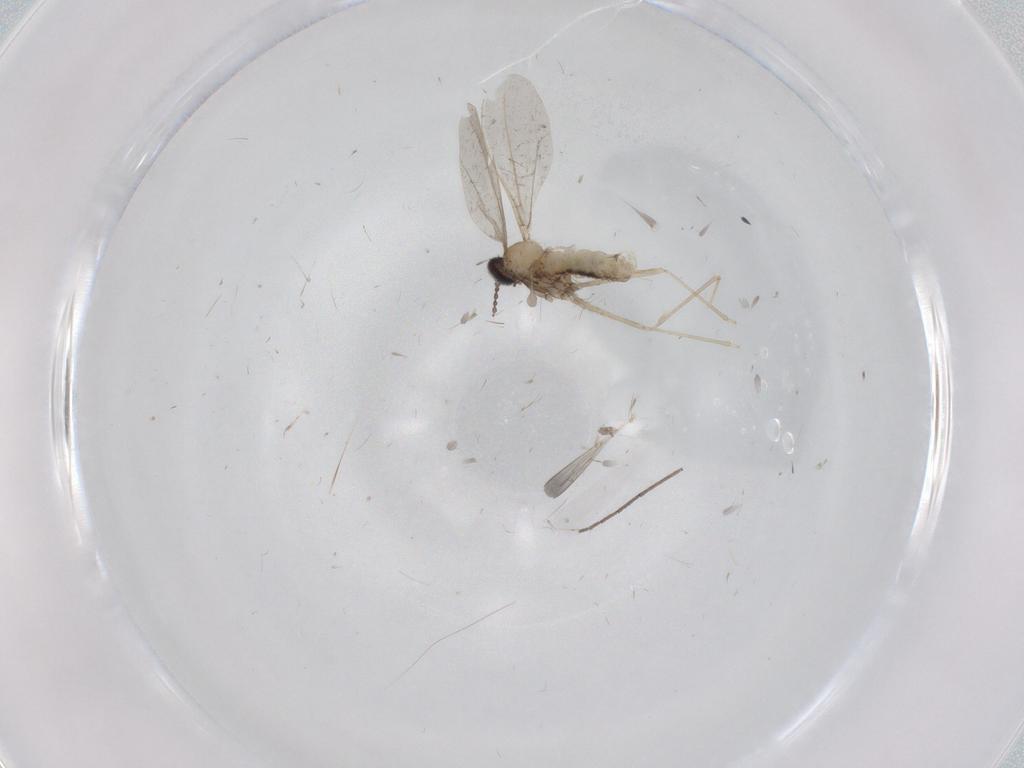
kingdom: Animalia
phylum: Arthropoda
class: Insecta
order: Diptera
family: Cecidomyiidae
